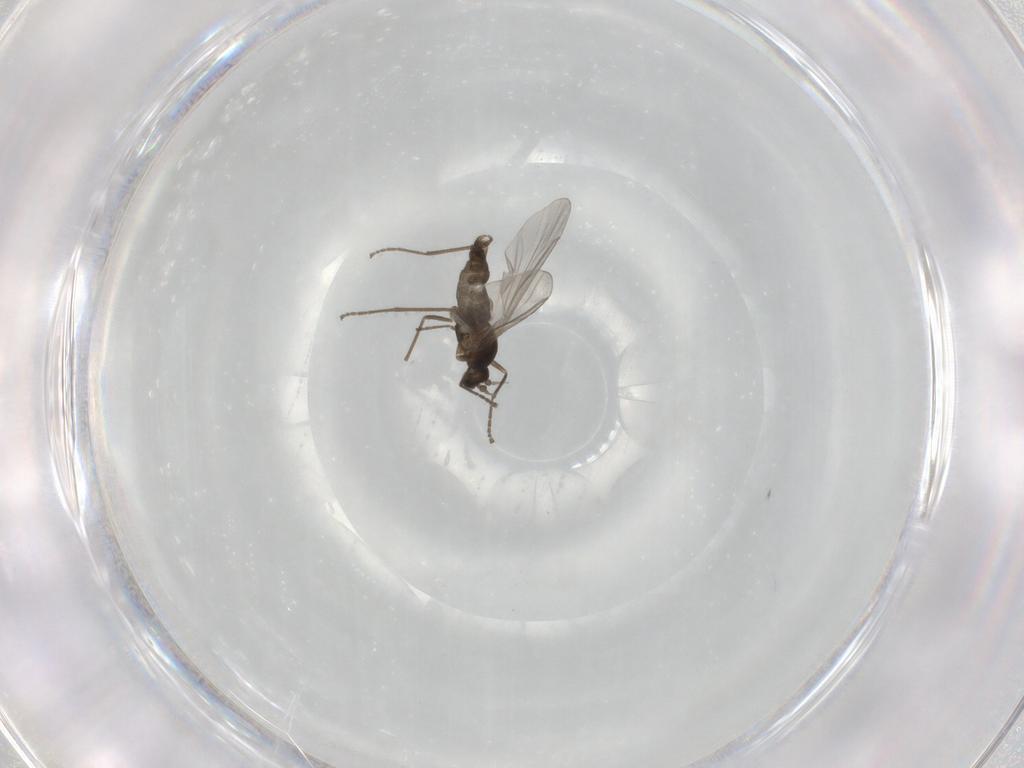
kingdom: Animalia
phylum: Arthropoda
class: Insecta
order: Diptera
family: Cecidomyiidae
